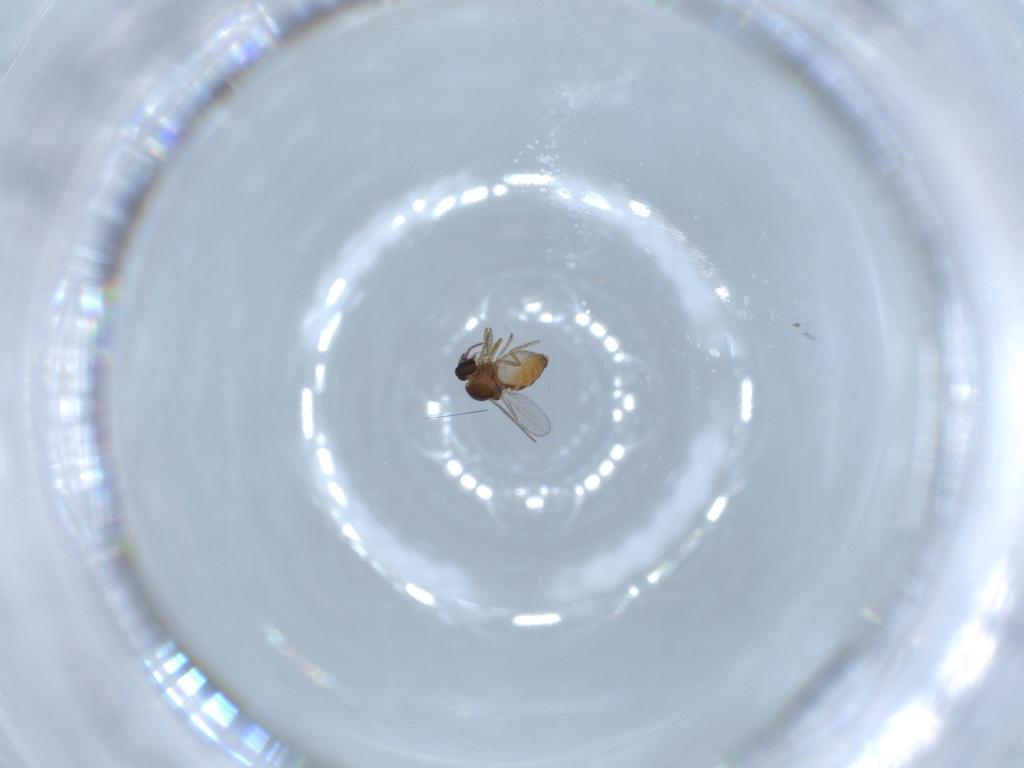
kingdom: Animalia
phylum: Arthropoda
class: Insecta
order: Diptera
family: Ceratopogonidae
